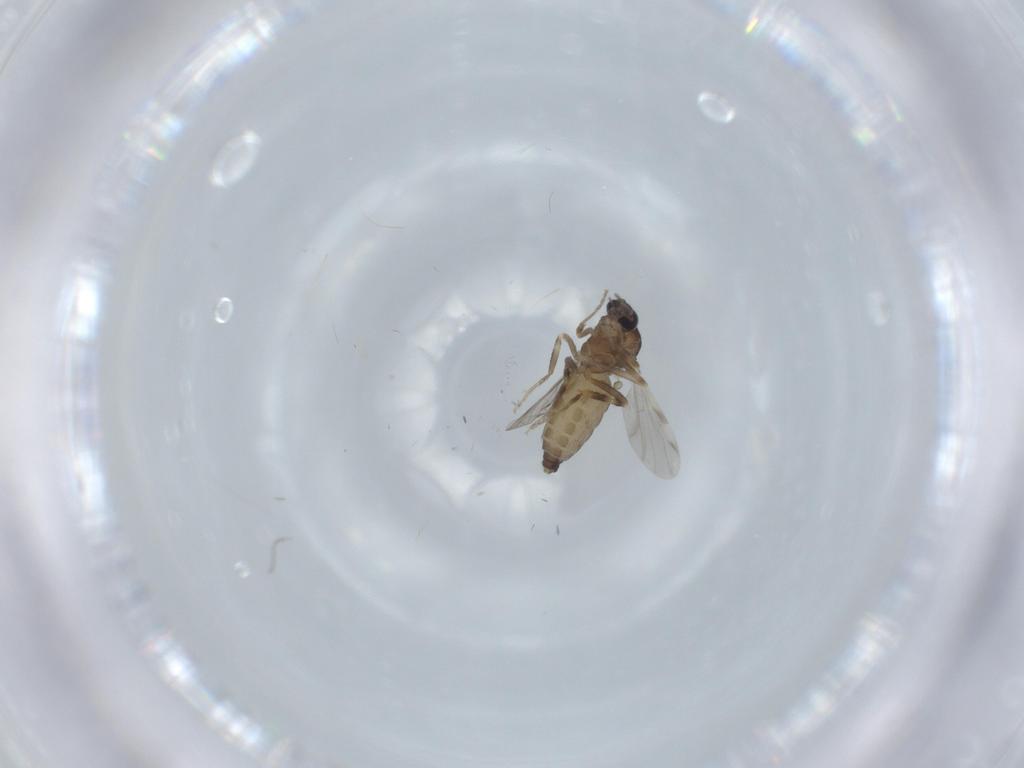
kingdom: Animalia
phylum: Arthropoda
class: Insecta
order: Diptera
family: Ceratopogonidae
